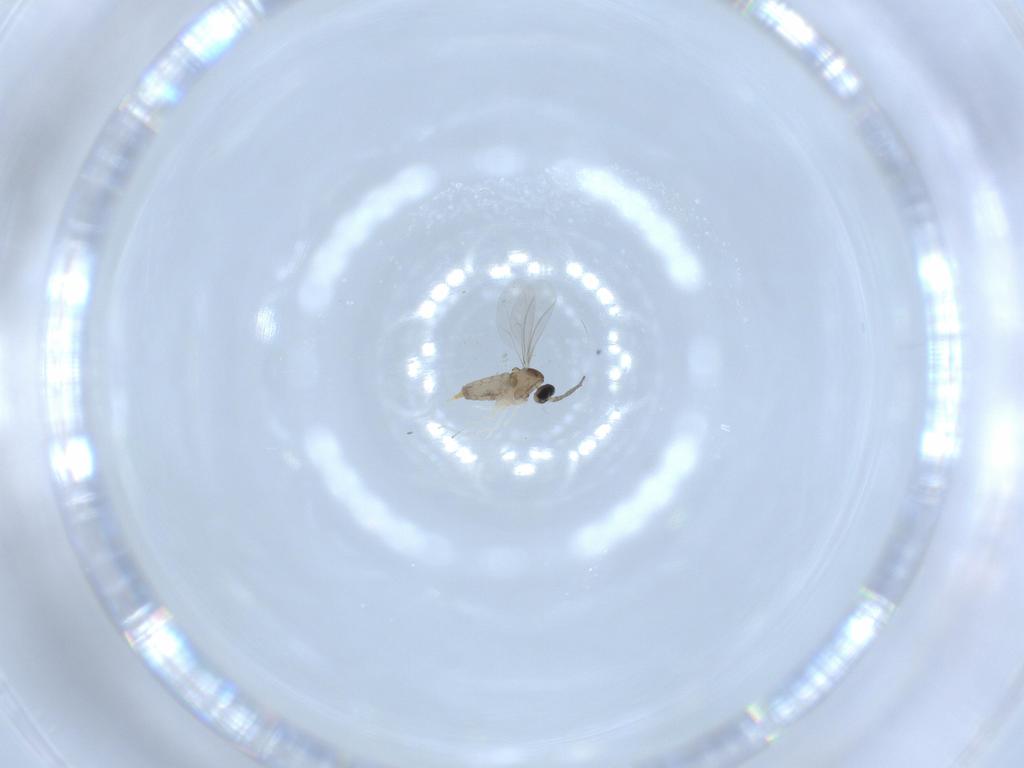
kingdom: Animalia
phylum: Arthropoda
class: Insecta
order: Diptera
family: Cecidomyiidae
